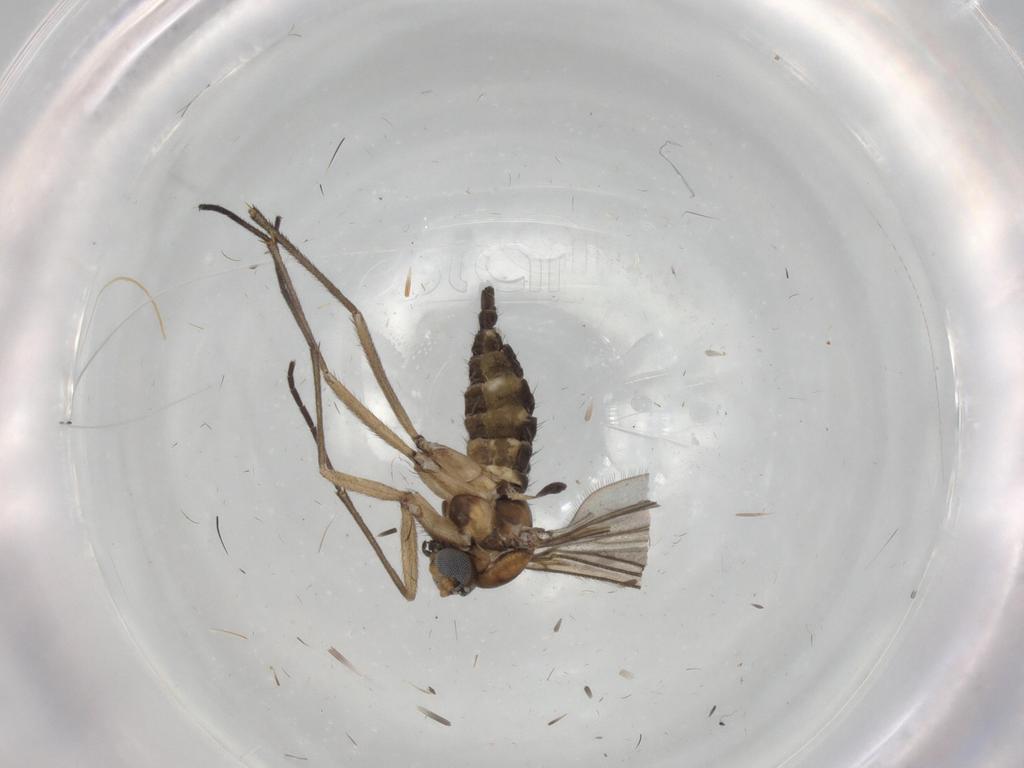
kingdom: Animalia
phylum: Arthropoda
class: Insecta
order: Diptera
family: Sciaridae
